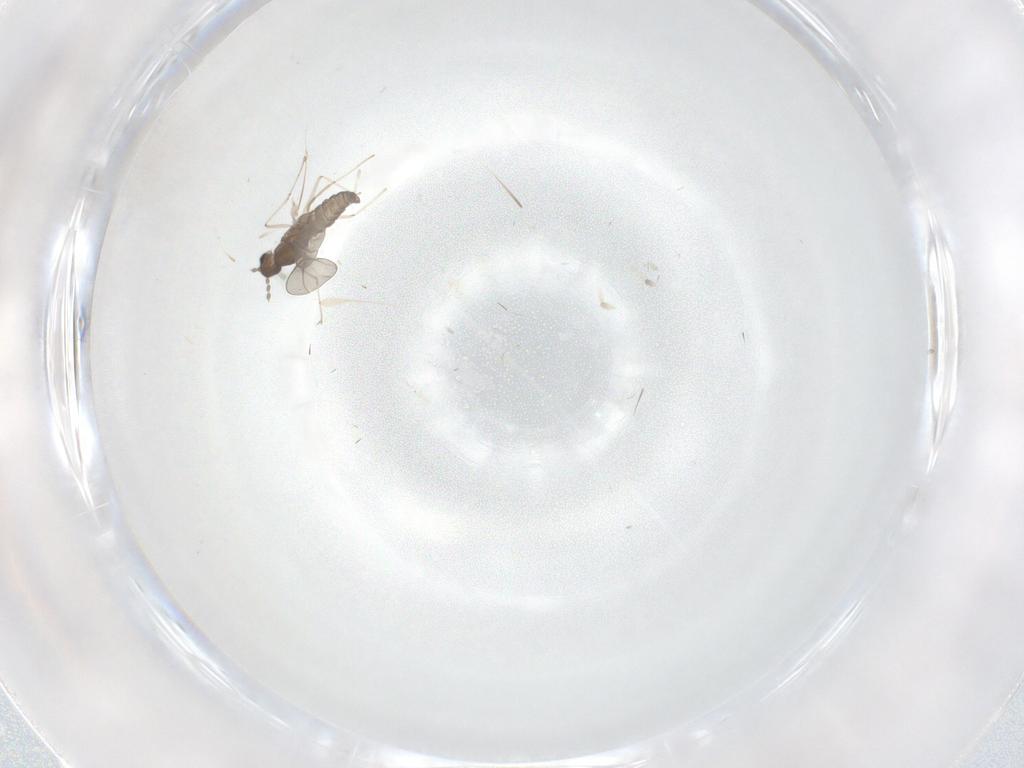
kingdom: Animalia
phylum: Arthropoda
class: Insecta
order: Diptera
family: Phoridae
